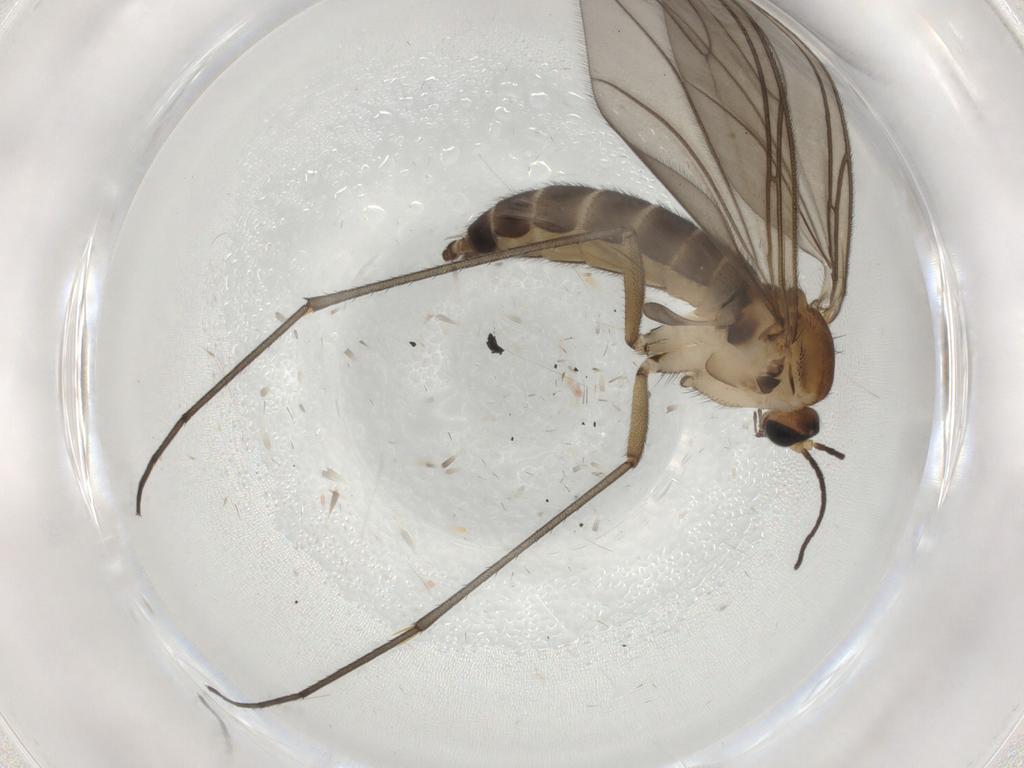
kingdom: Animalia
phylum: Arthropoda
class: Insecta
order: Diptera
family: Sciaridae
